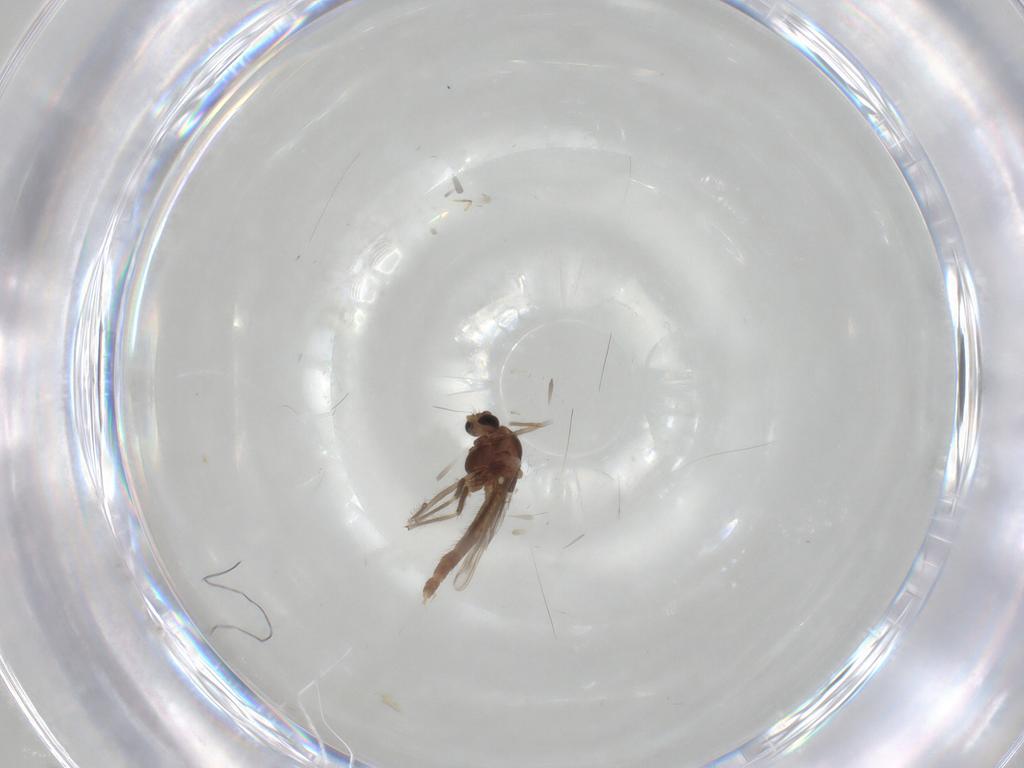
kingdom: Animalia
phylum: Arthropoda
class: Insecta
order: Diptera
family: Chironomidae
